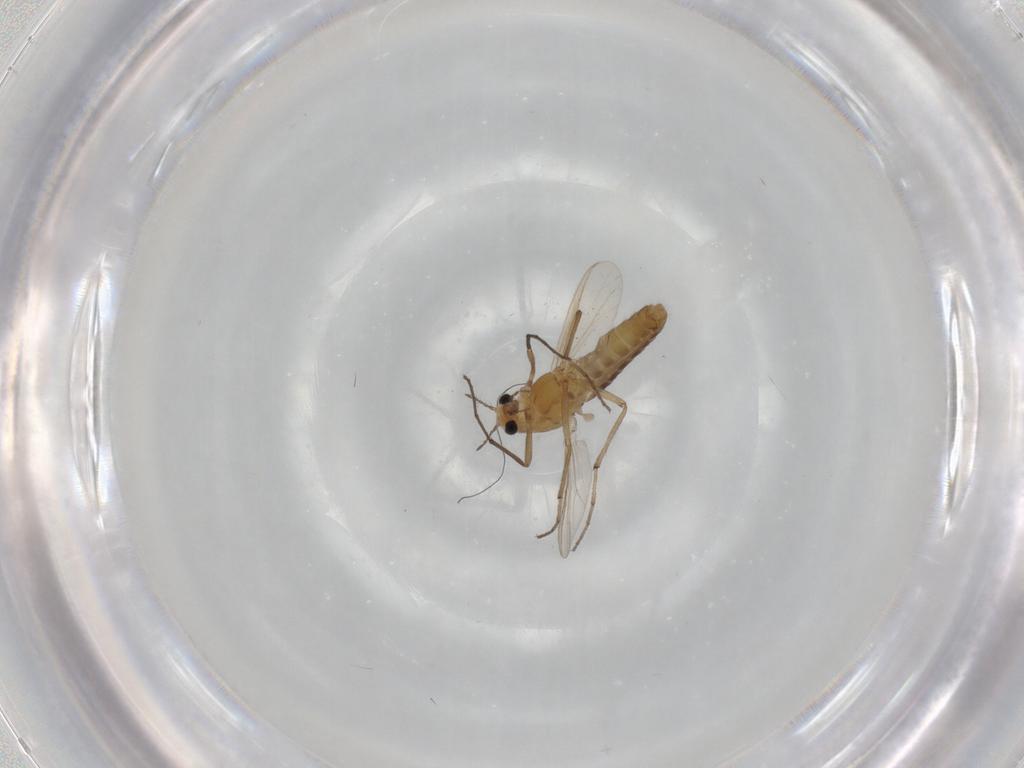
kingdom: Animalia
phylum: Arthropoda
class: Insecta
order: Diptera
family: Chironomidae
